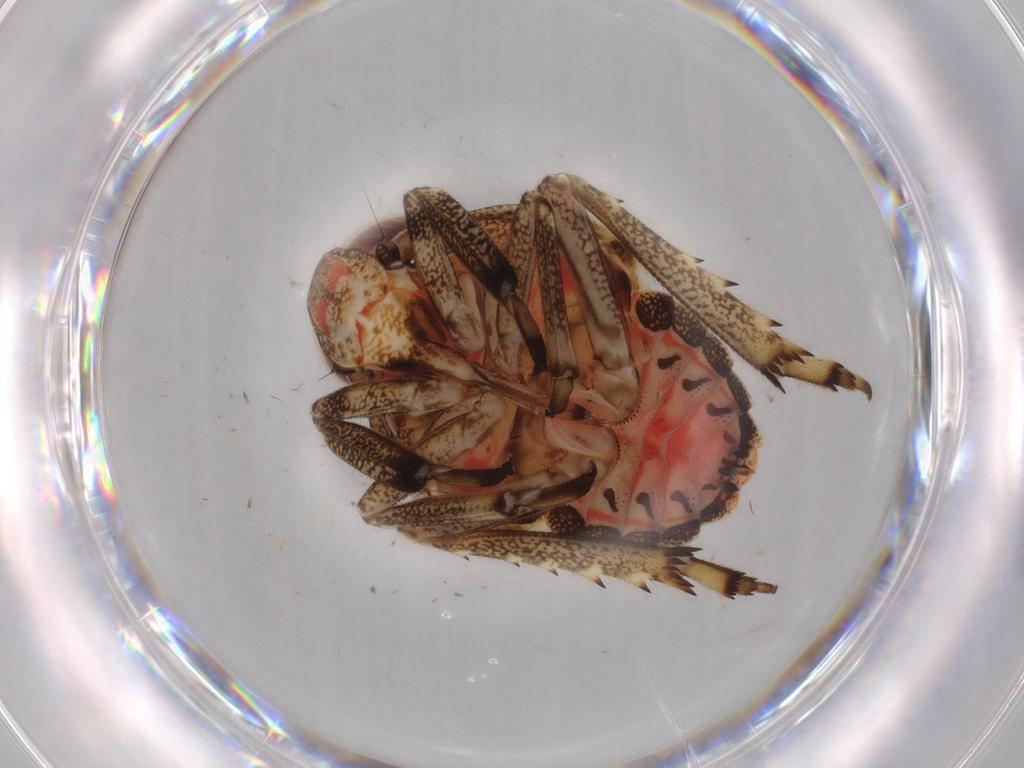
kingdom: Animalia
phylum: Arthropoda
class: Insecta
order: Hemiptera
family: Issidae
